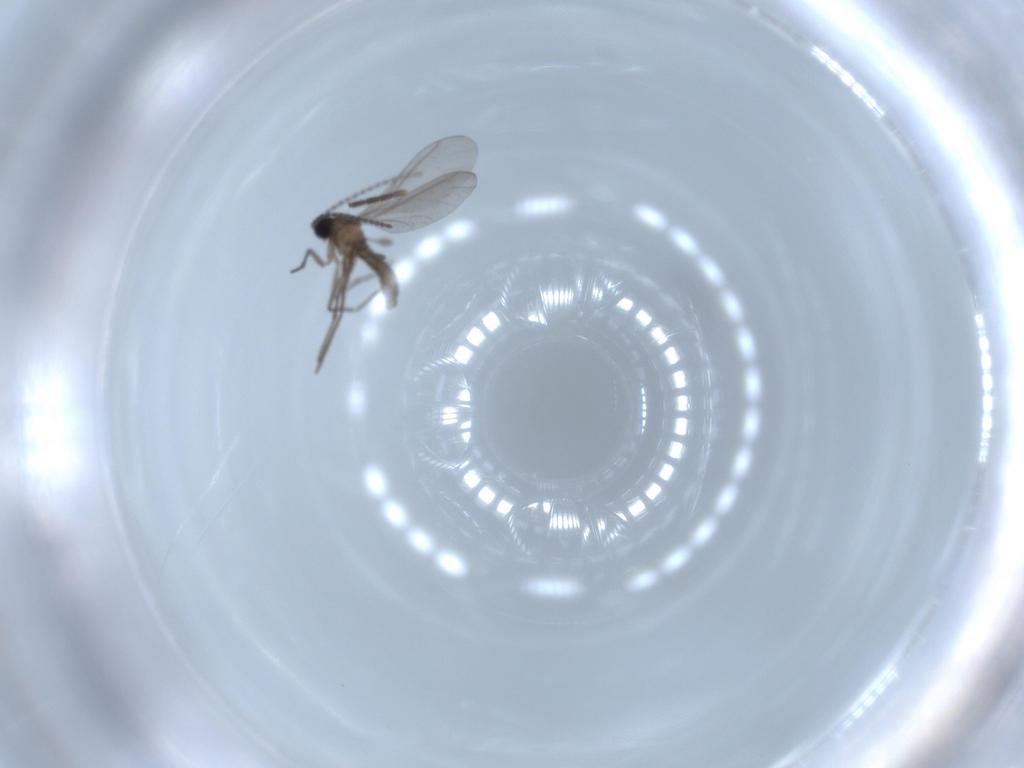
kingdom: Animalia
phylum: Arthropoda
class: Insecta
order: Diptera
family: Sciaridae
